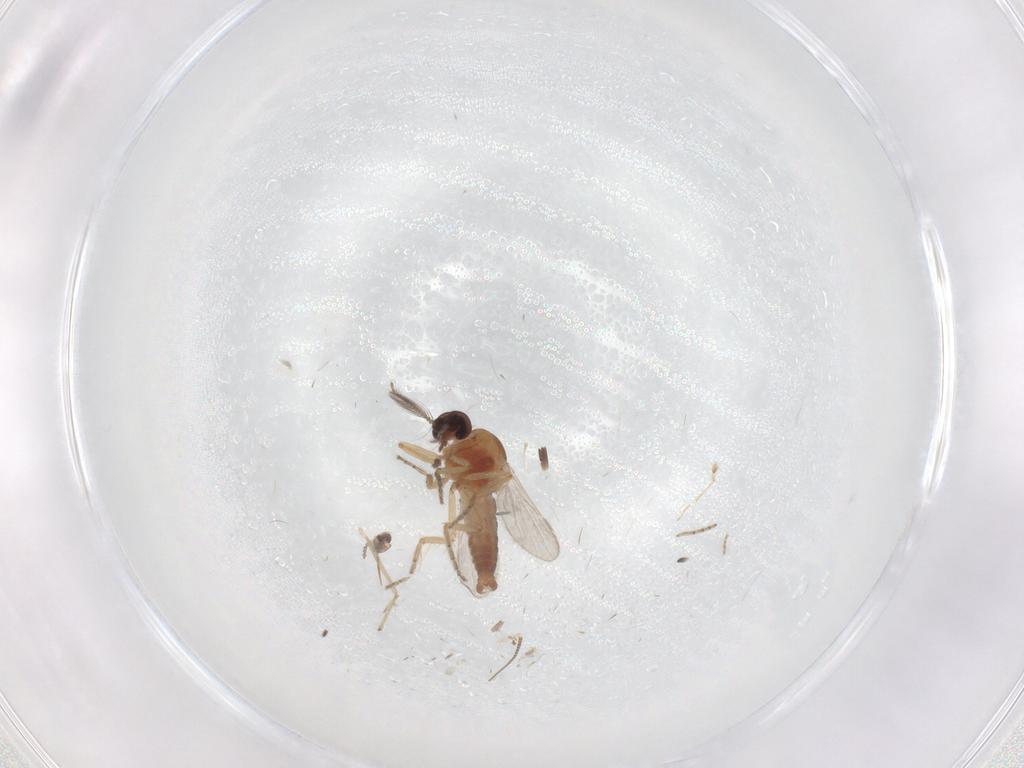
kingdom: Animalia
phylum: Arthropoda
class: Insecta
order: Diptera
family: Ceratopogonidae
